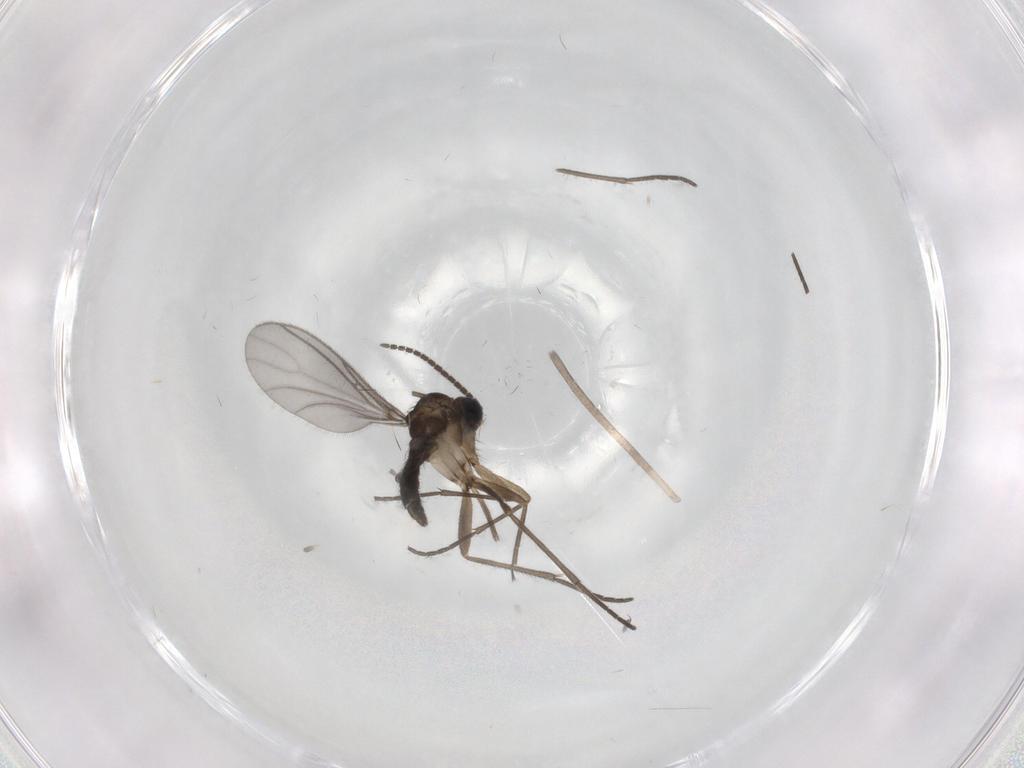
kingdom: Animalia
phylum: Arthropoda
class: Insecta
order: Diptera
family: Sciaridae
